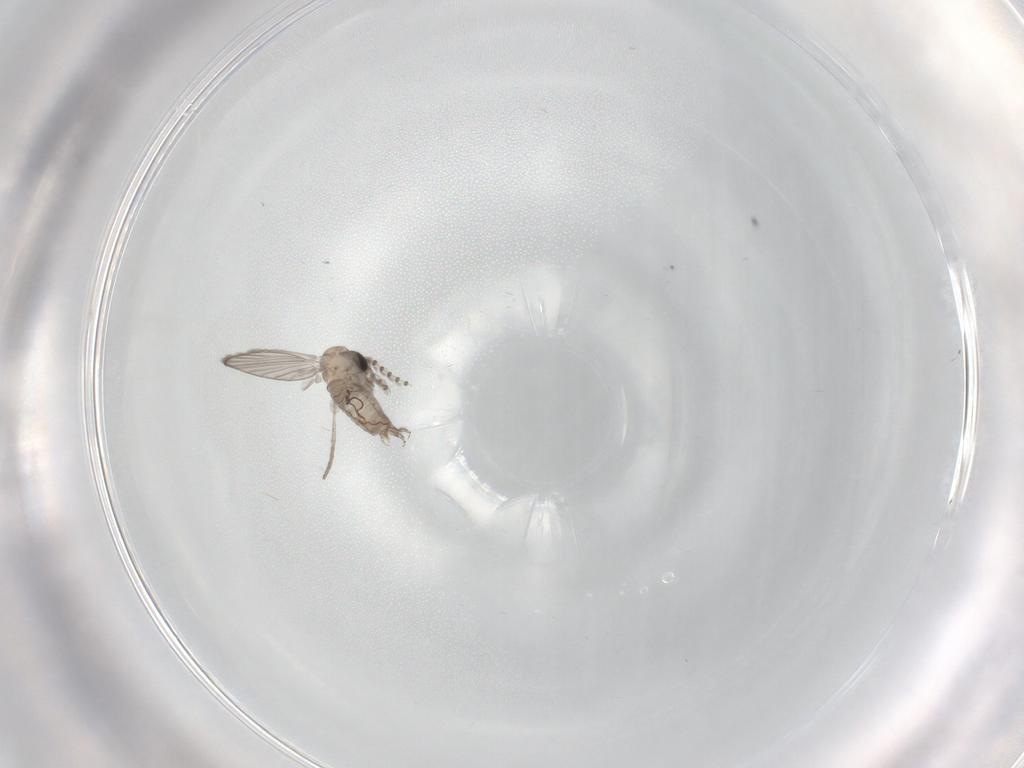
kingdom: Animalia
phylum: Arthropoda
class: Insecta
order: Diptera
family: Psychodidae
